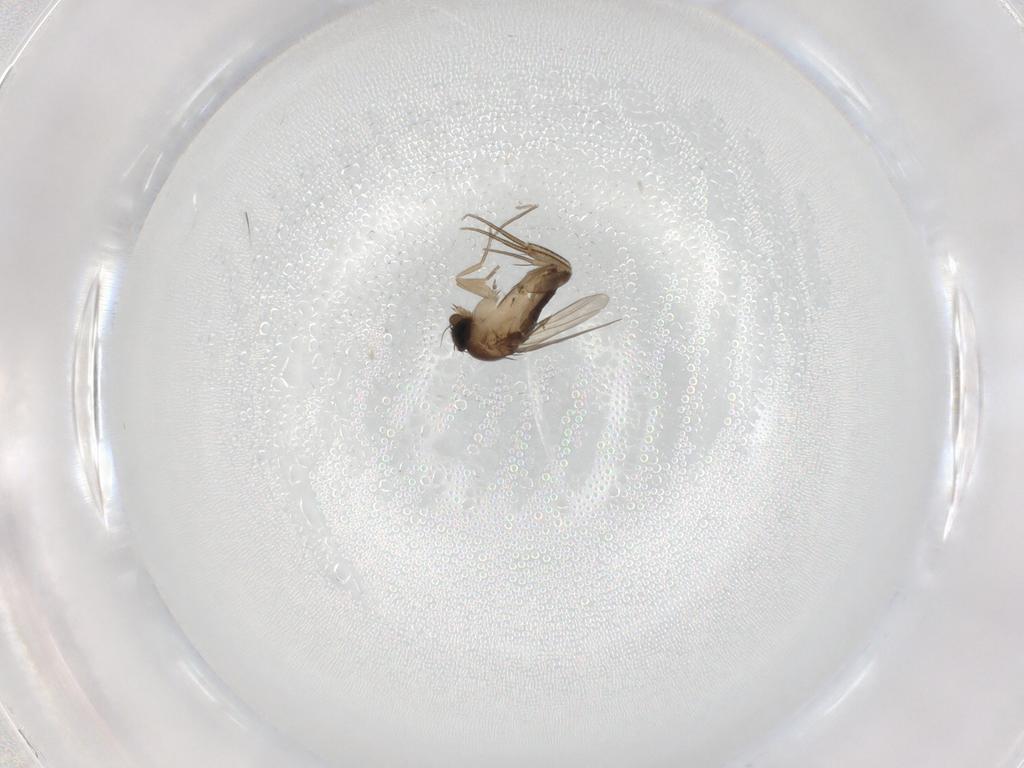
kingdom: Animalia
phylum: Arthropoda
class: Insecta
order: Diptera
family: Phoridae
